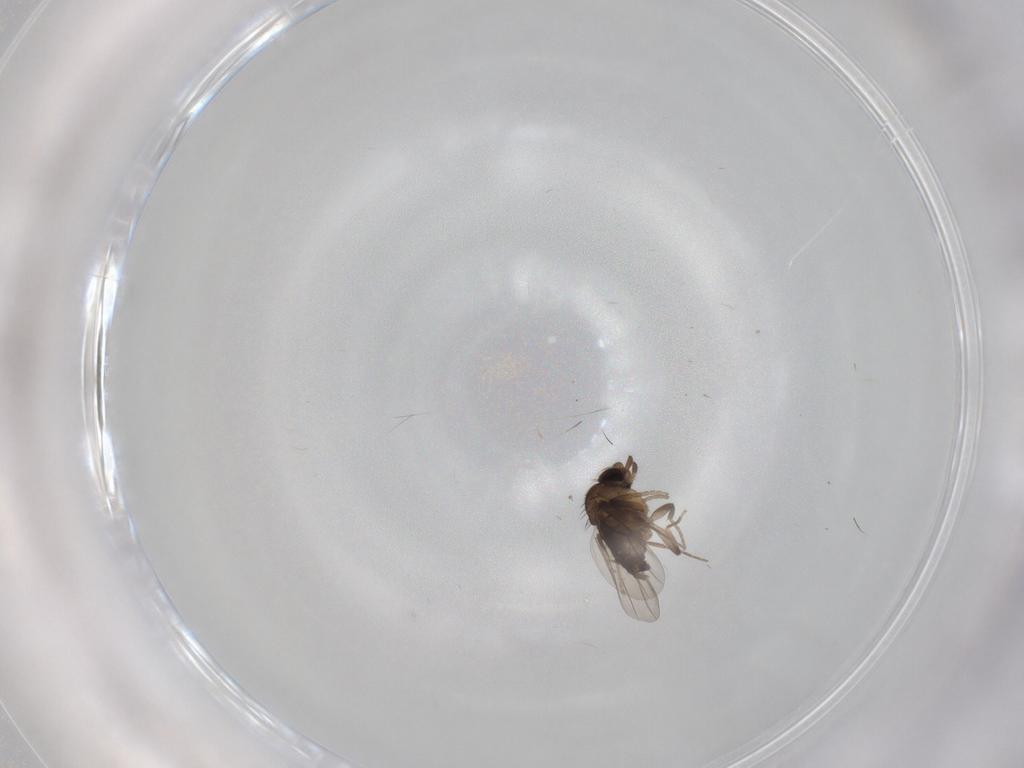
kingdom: Animalia
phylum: Arthropoda
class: Insecta
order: Diptera
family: Phoridae
